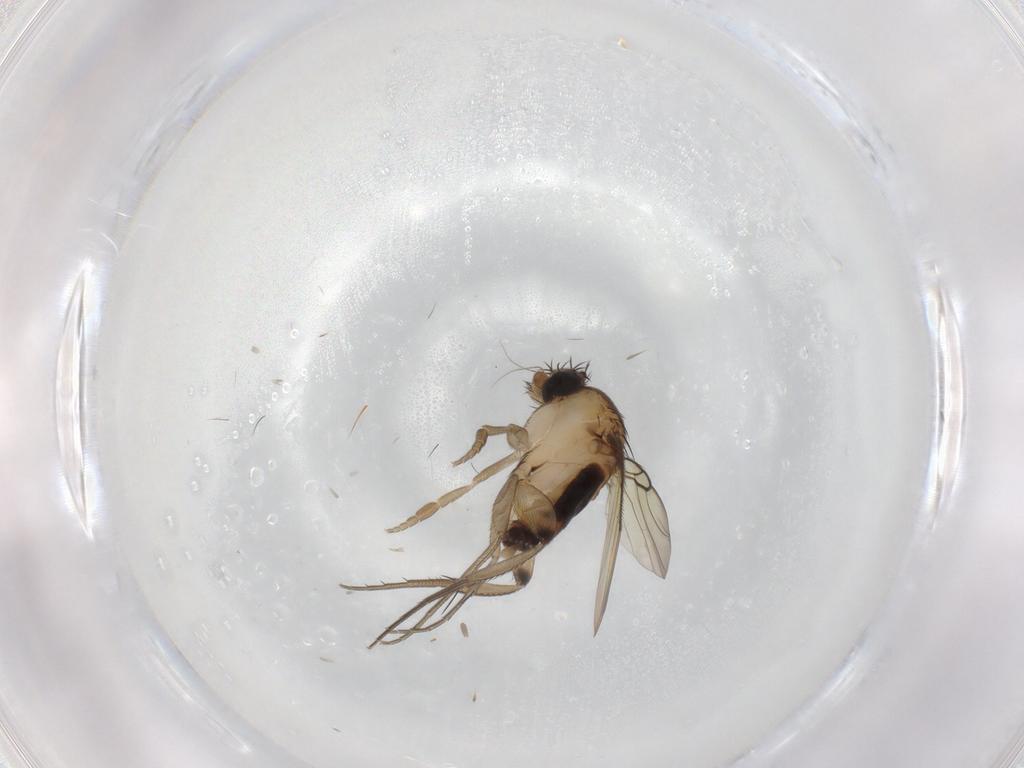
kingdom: Animalia
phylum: Arthropoda
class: Insecta
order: Diptera
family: Phoridae
